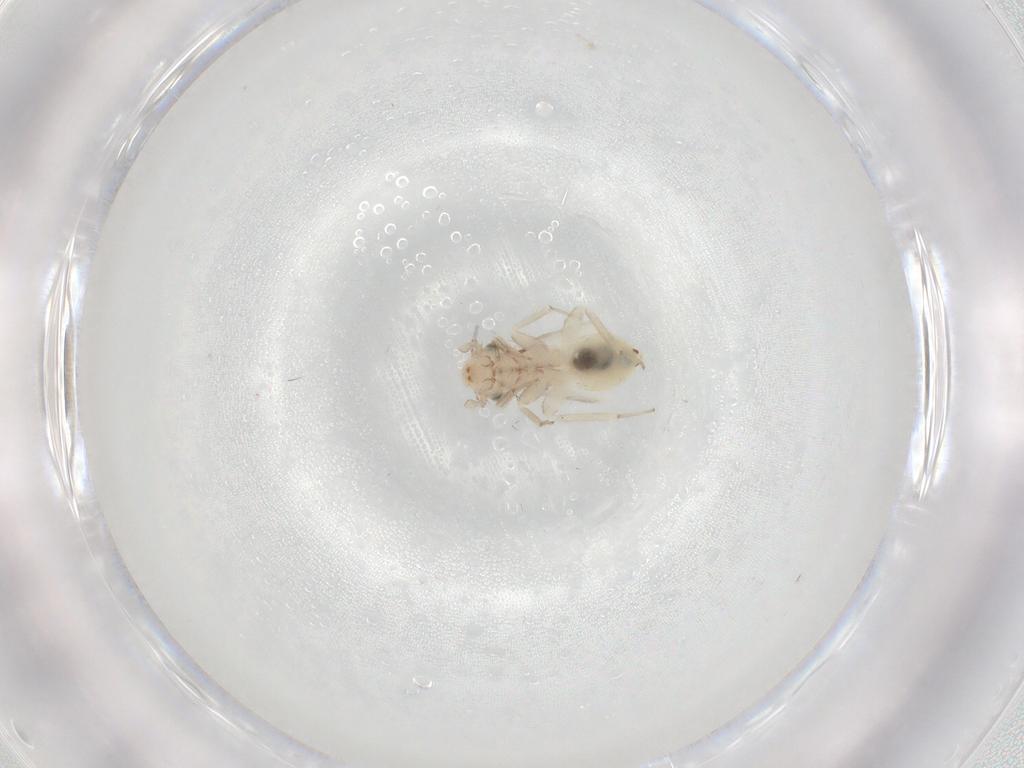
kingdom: Animalia
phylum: Arthropoda
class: Insecta
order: Psocodea
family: Lepidopsocidae
